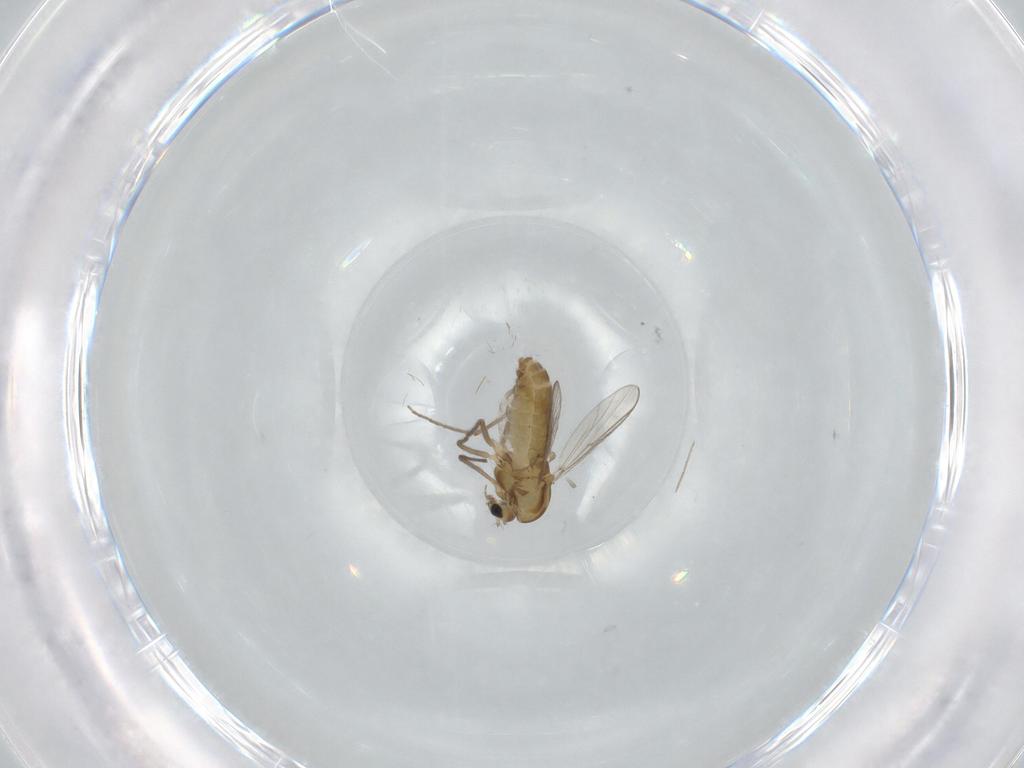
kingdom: Animalia
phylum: Arthropoda
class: Insecta
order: Diptera
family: Chironomidae
